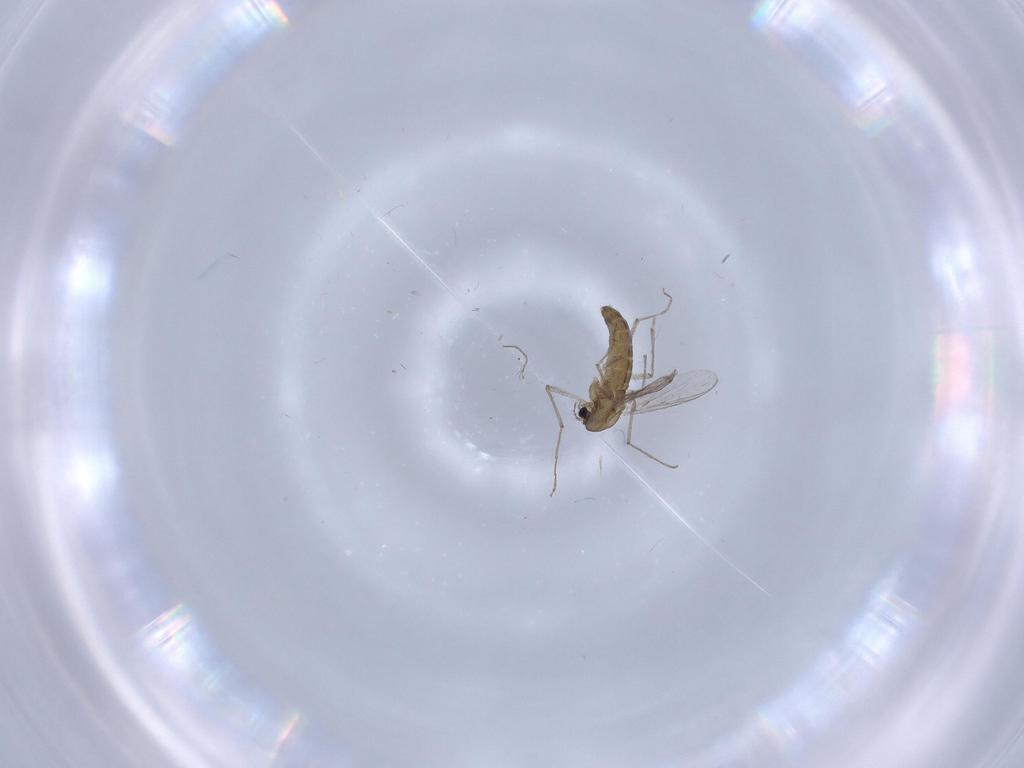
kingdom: Animalia
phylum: Arthropoda
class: Insecta
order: Diptera
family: Chironomidae
